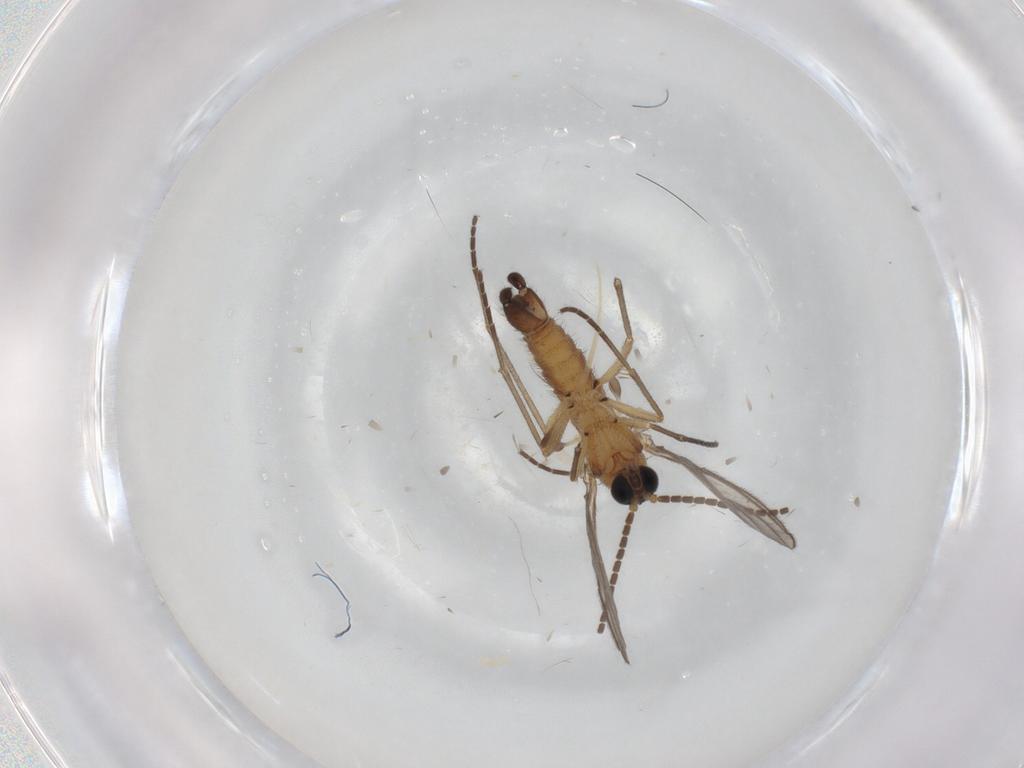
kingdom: Animalia
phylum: Arthropoda
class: Insecta
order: Diptera
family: Sciaridae
